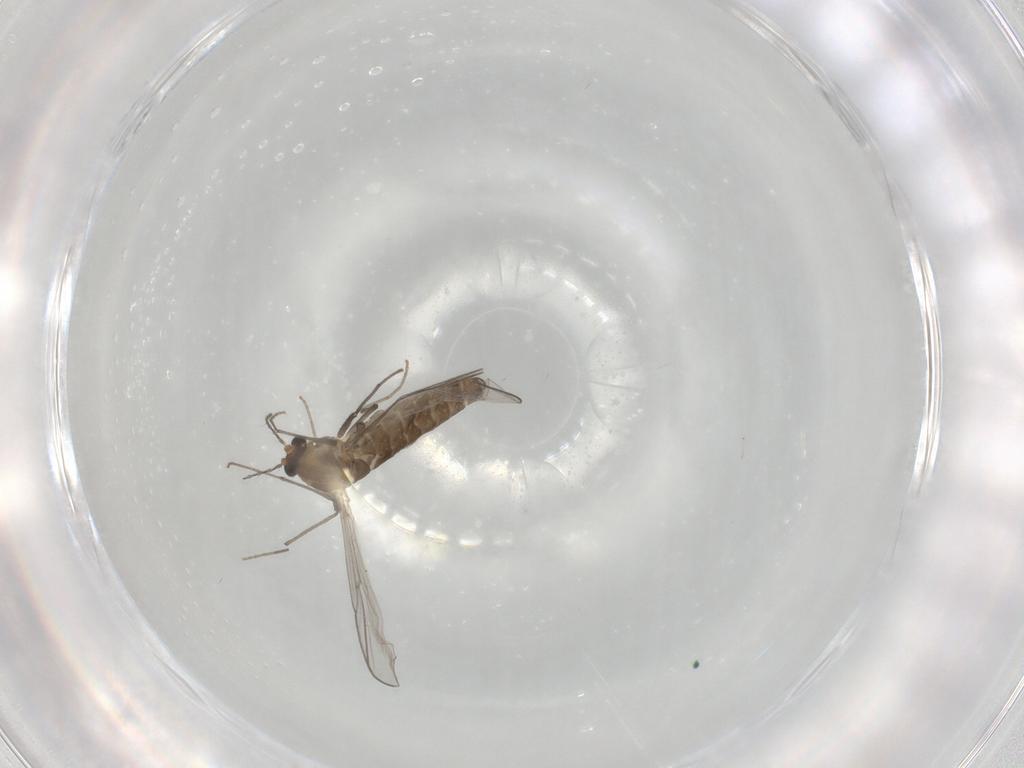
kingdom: Animalia
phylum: Arthropoda
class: Insecta
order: Diptera
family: Chironomidae
